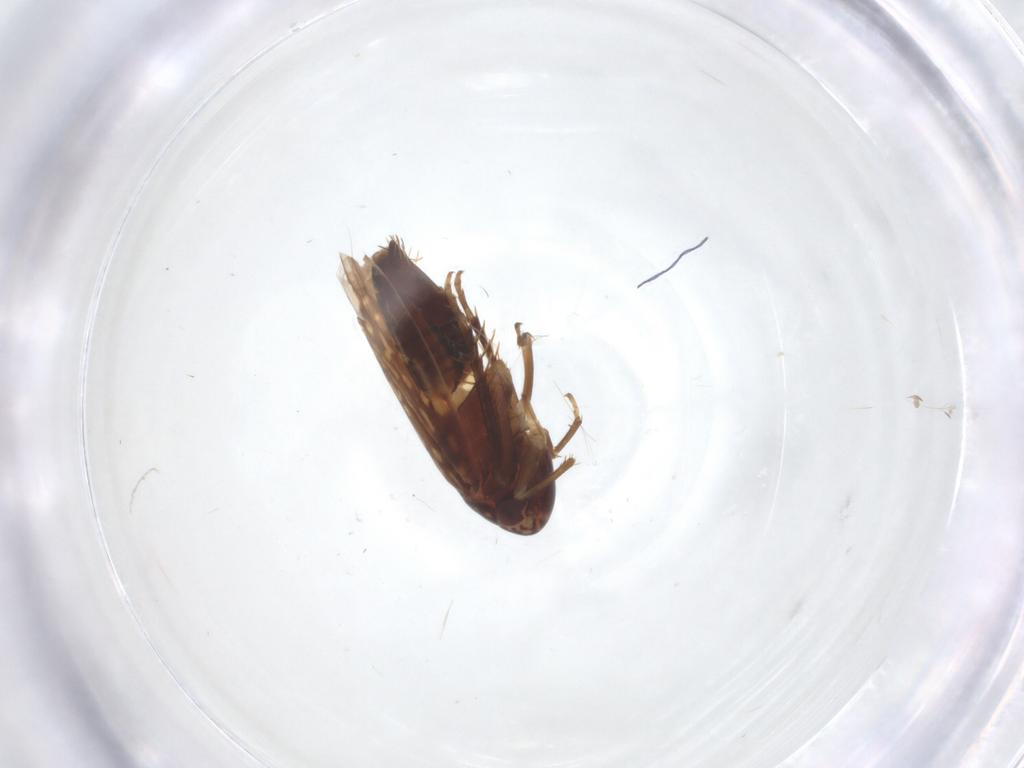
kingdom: Animalia
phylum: Arthropoda
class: Insecta
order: Hemiptera
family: Cicadellidae
